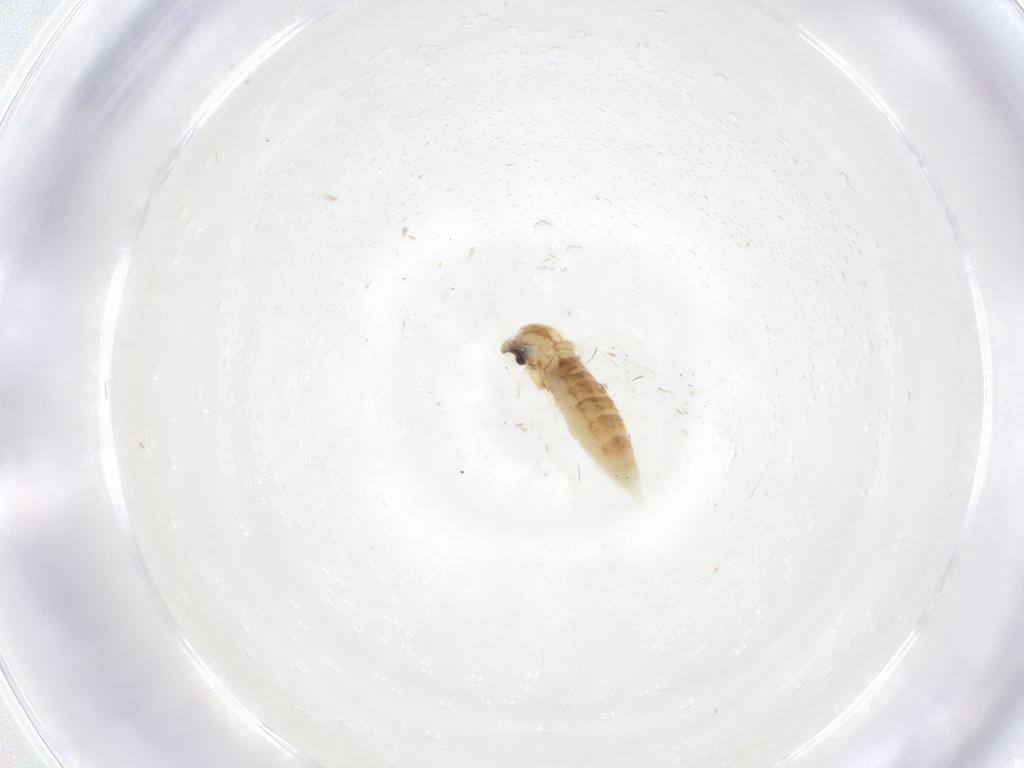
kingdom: Animalia
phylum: Arthropoda
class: Insecta
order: Diptera
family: Cecidomyiidae
